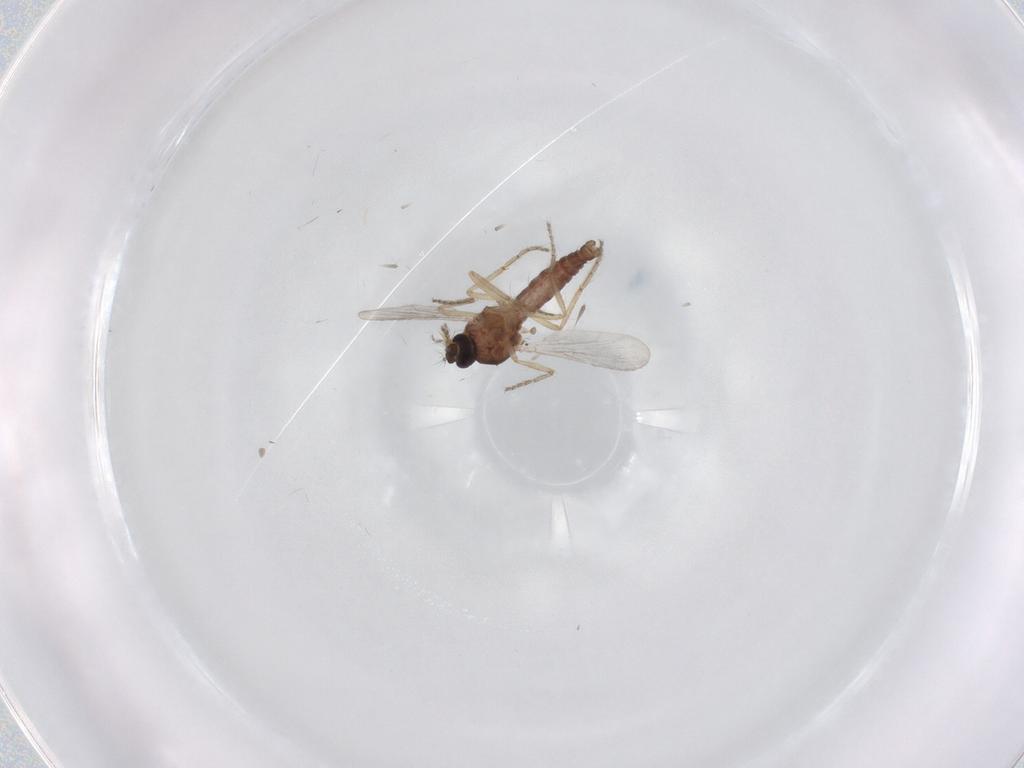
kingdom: Animalia
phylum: Arthropoda
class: Insecta
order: Diptera
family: Ceratopogonidae
